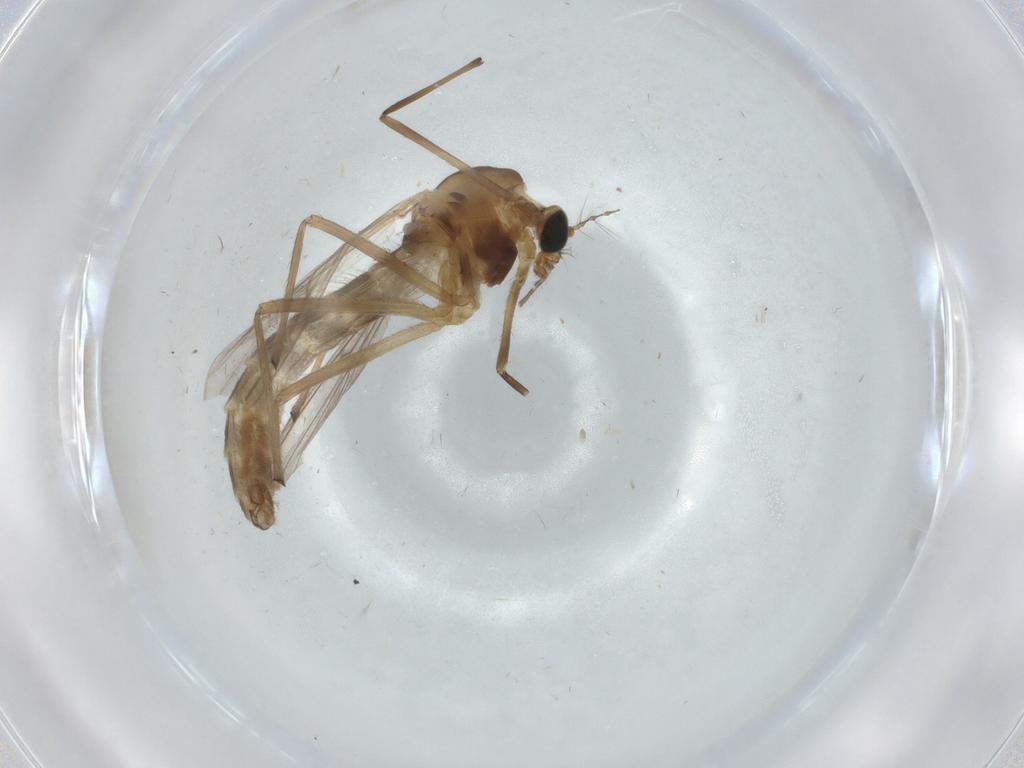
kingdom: Animalia
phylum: Arthropoda
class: Insecta
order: Diptera
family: Chironomidae
